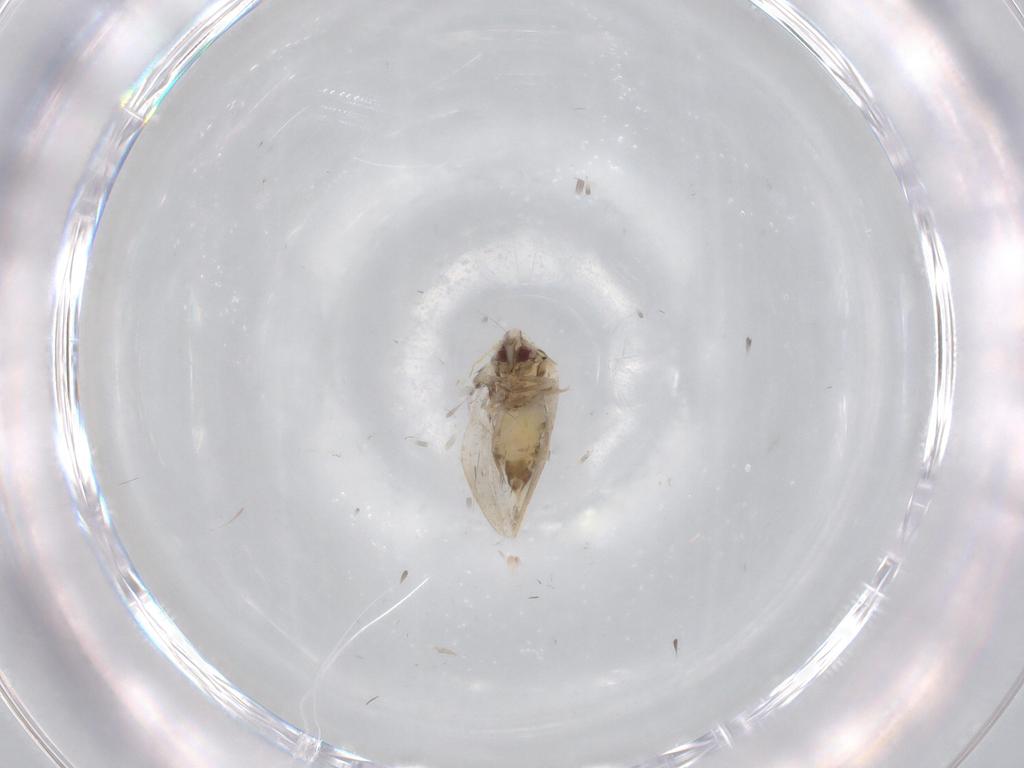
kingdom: Animalia
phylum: Arthropoda
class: Insecta
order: Hemiptera
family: Aleyrodidae
